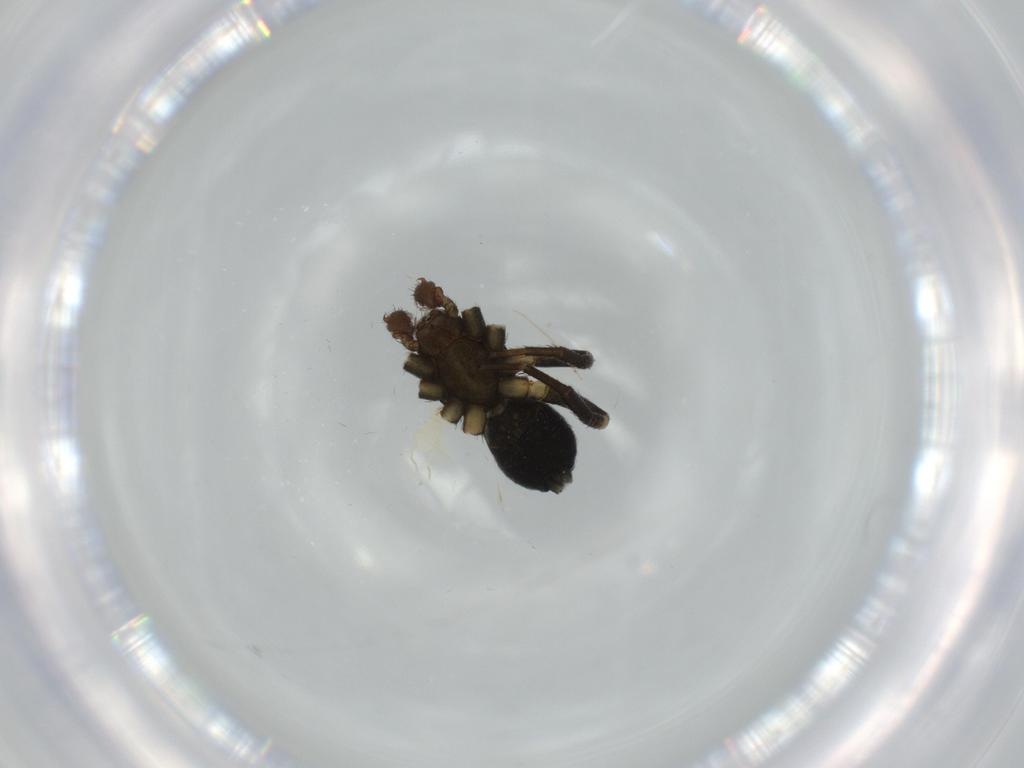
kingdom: Animalia
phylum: Arthropoda
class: Arachnida
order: Araneae
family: Gnaphosidae
